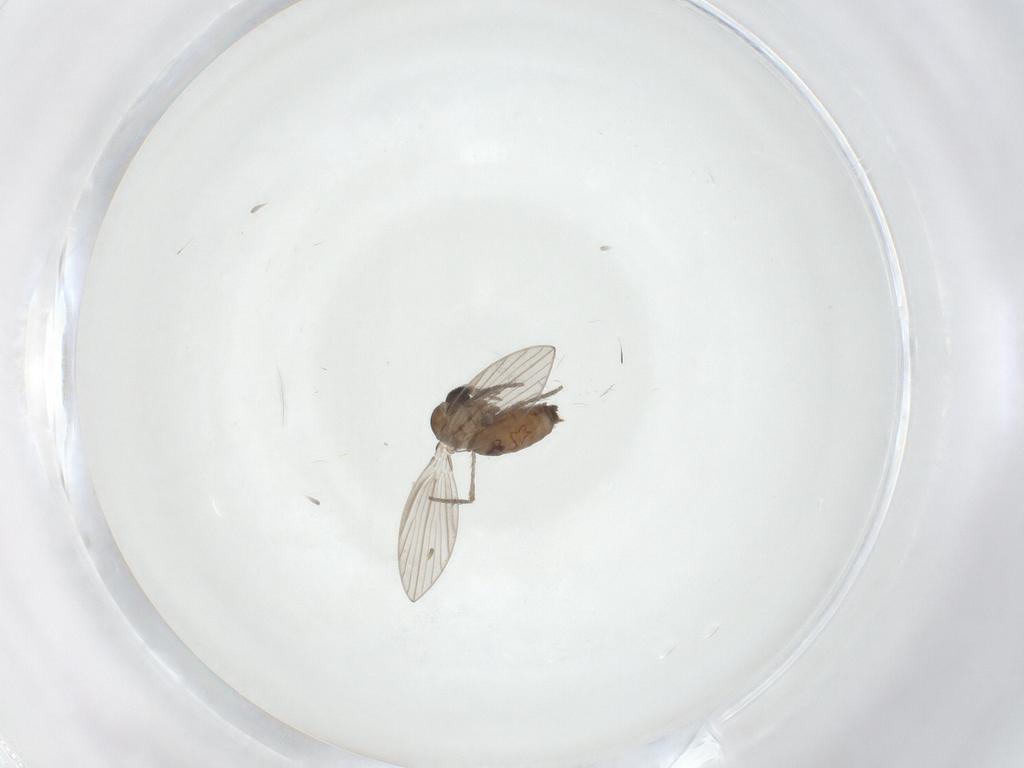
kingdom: Animalia
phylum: Arthropoda
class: Insecta
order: Diptera
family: Psychodidae
